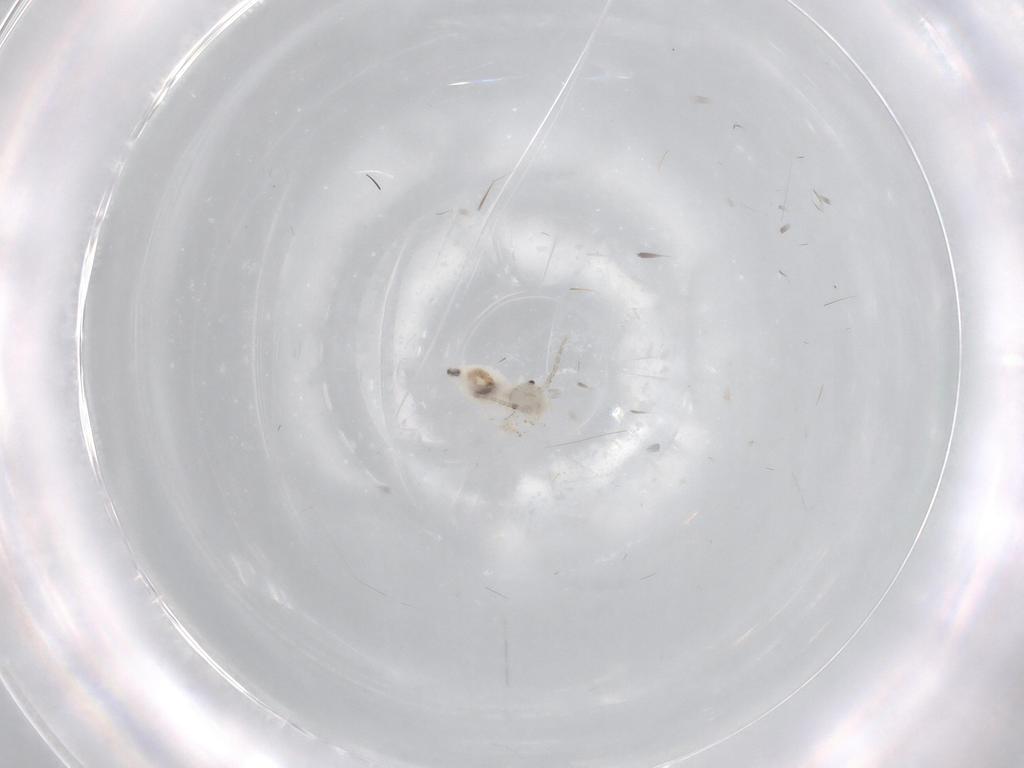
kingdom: Animalia
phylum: Arthropoda
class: Insecta
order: Psocodea
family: Amphipsocidae
